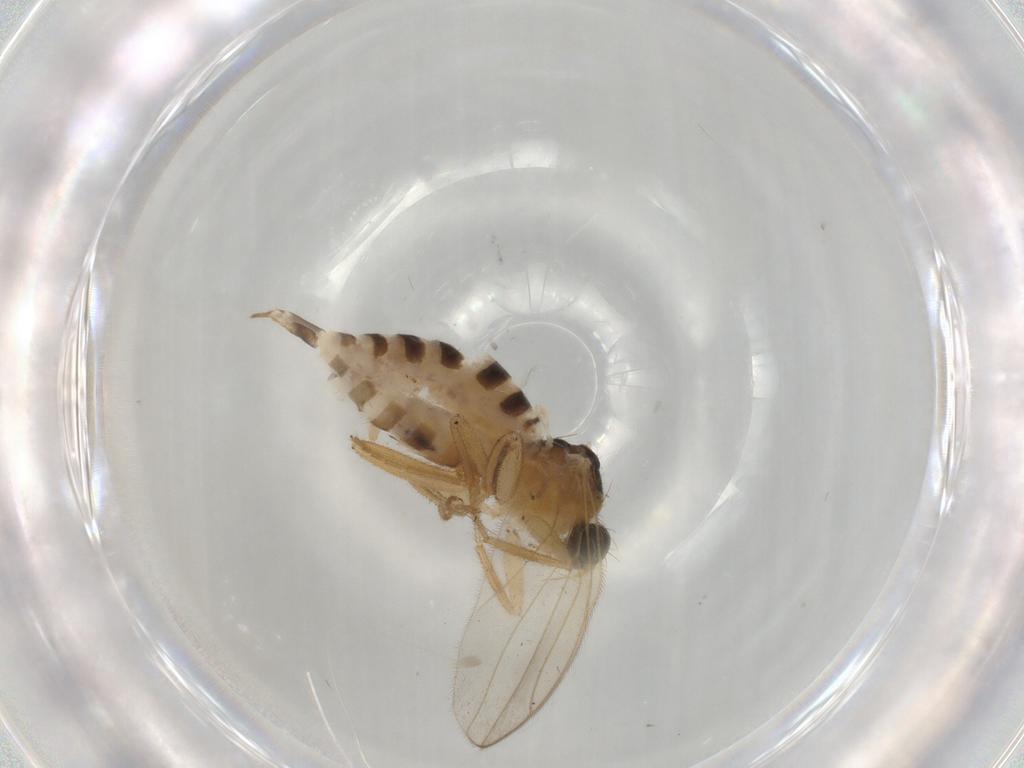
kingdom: Animalia
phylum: Arthropoda
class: Insecta
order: Diptera
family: Hybotidae
